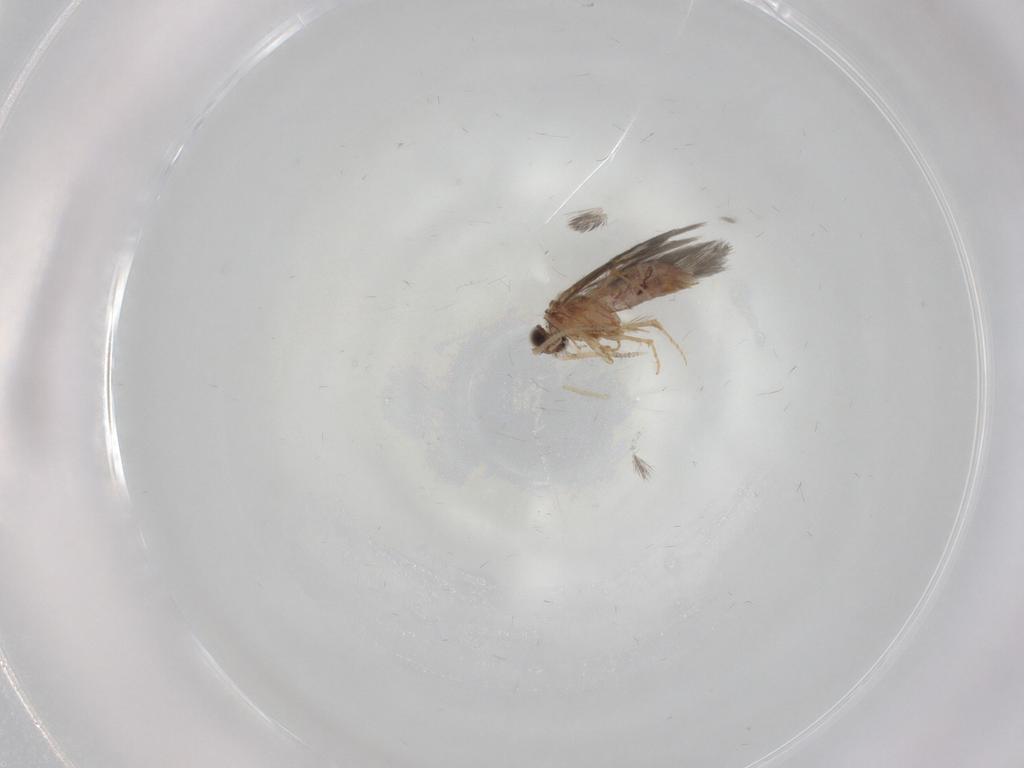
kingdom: Animalia
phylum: Arthropoda
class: Insecta
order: Trichoptera
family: Hydroptilidae
